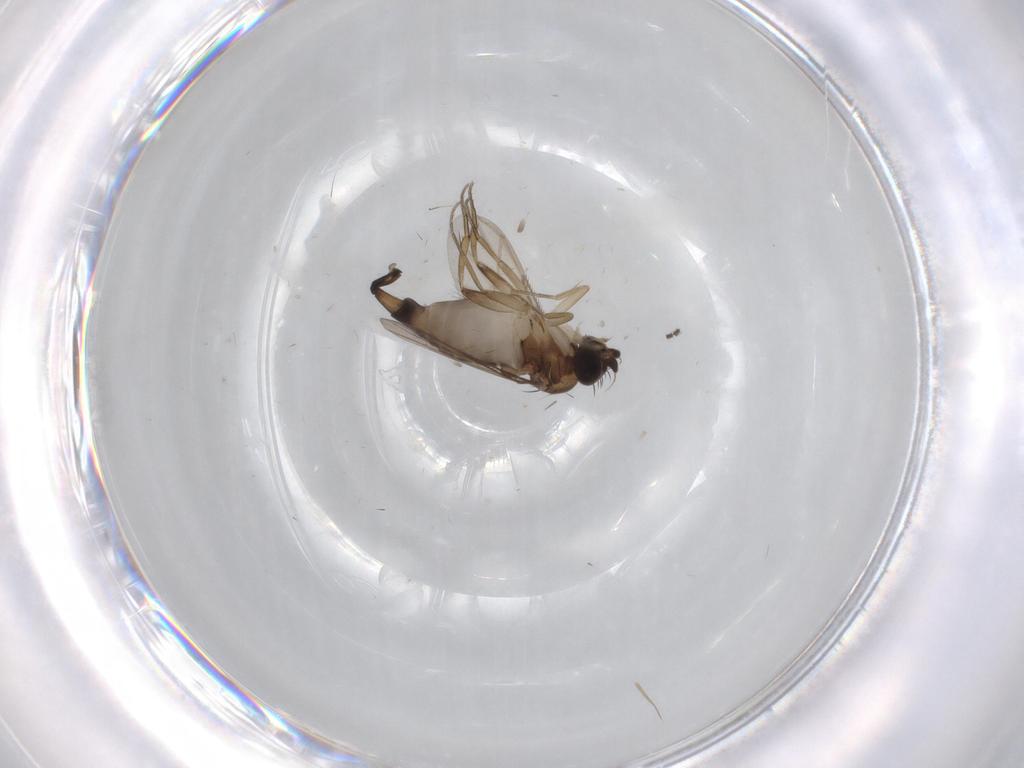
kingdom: Animalia
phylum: Arthropoda
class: Insecta
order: Diptera
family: Phoridae
